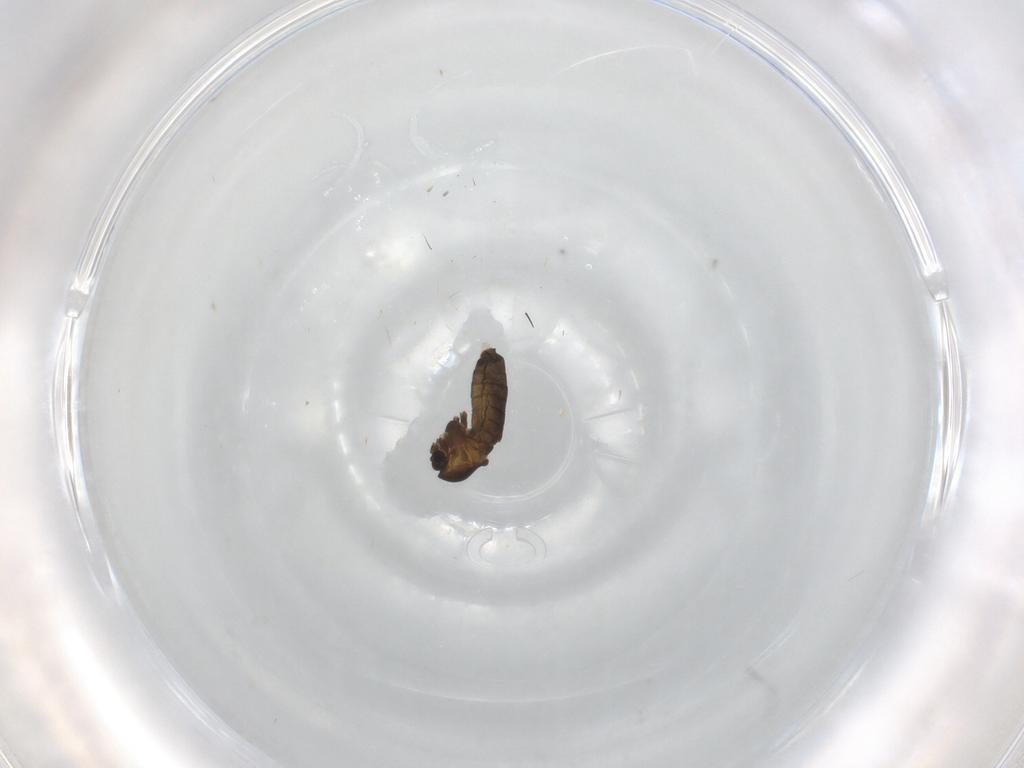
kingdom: Animalia
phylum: Arthropoda
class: Insecta
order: Diptera
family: Chironomidae
